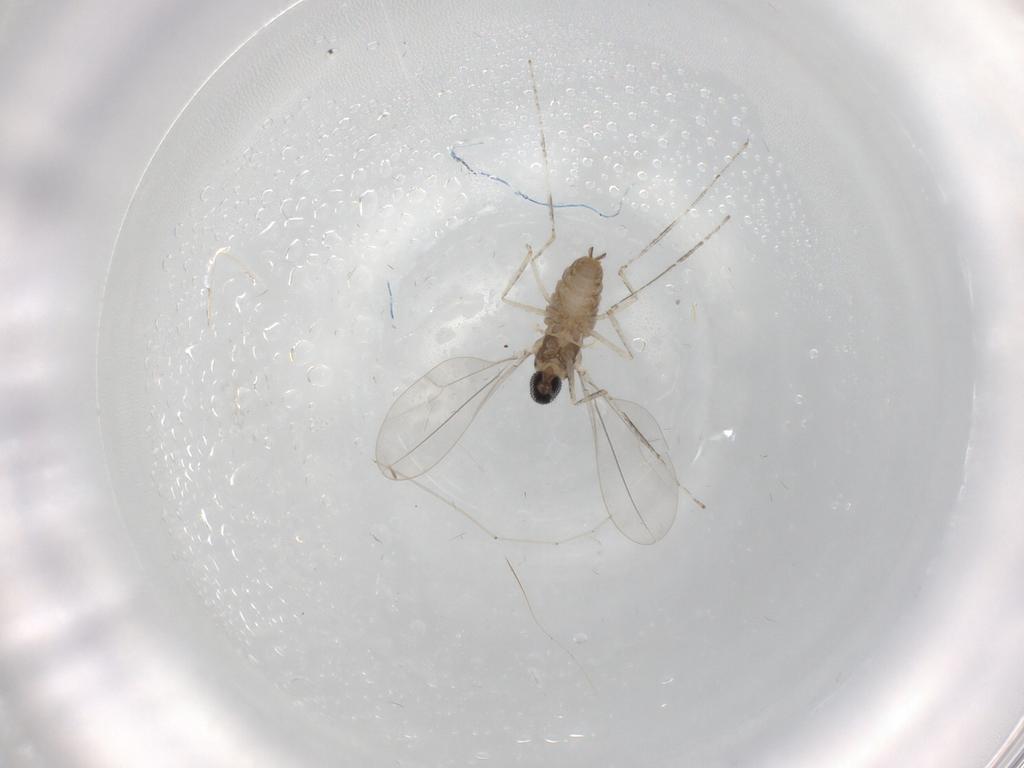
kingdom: Animalia
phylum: Arthropoda
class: Insecta
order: Diptera
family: Cecidomyiidae
